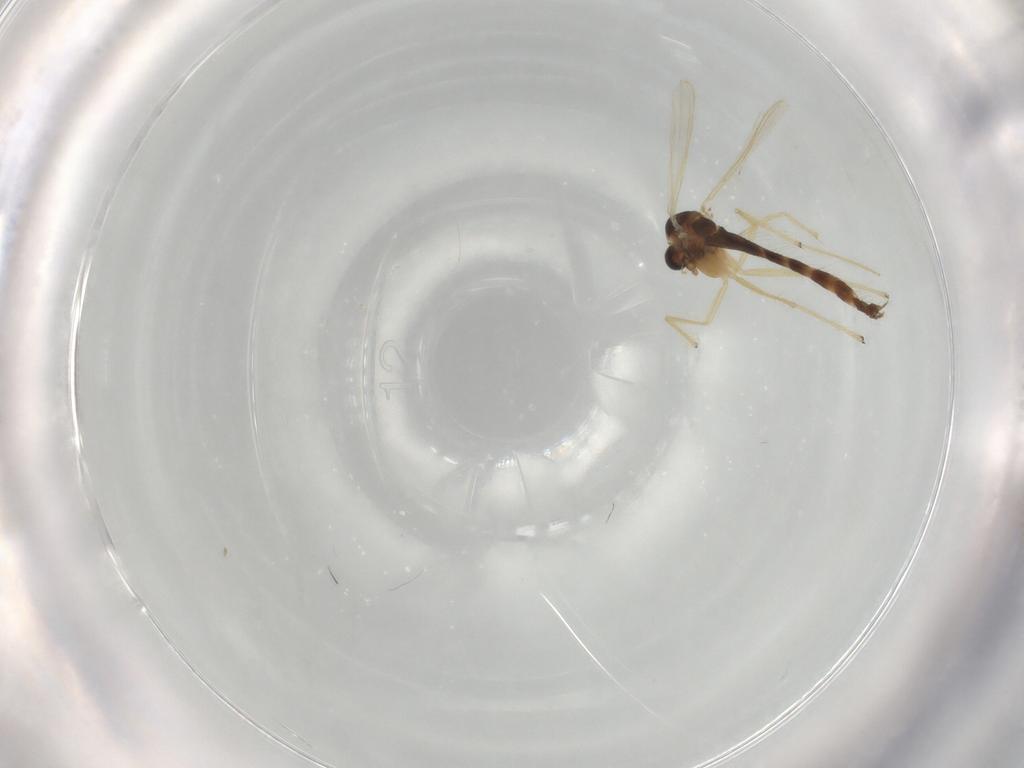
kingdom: Animalia
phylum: Arthropoda
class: Insecta
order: Diptera
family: Chironomidae
